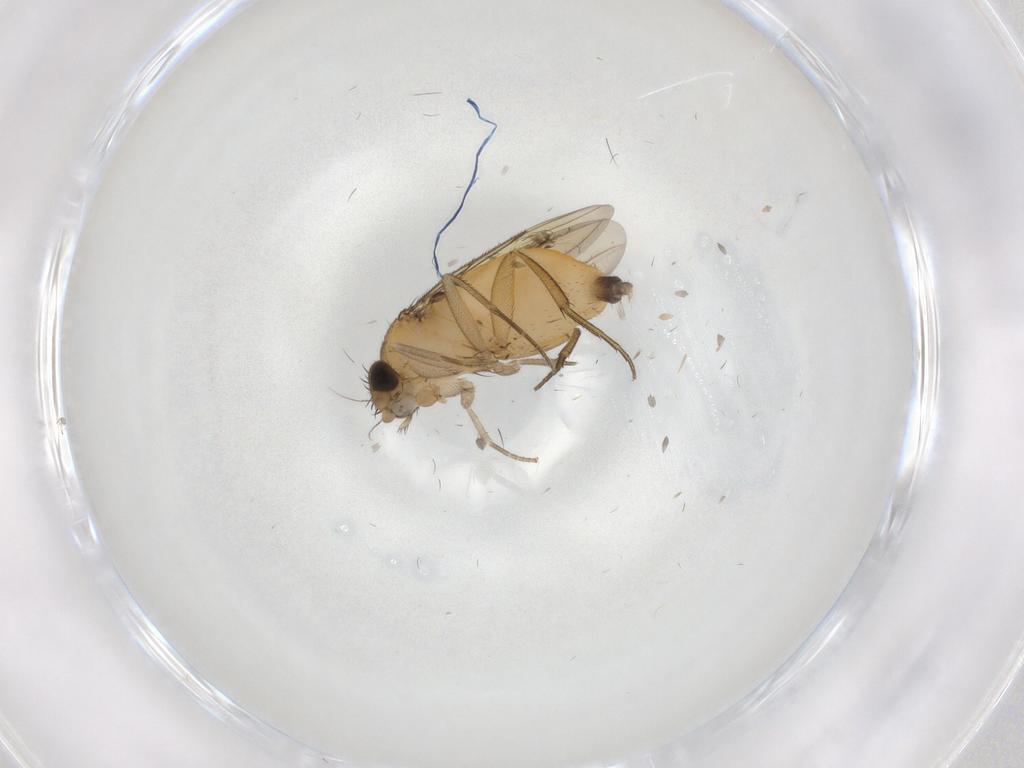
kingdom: Animalia
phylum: Arthropoda
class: Insecta
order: Diptera
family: Phoridae
